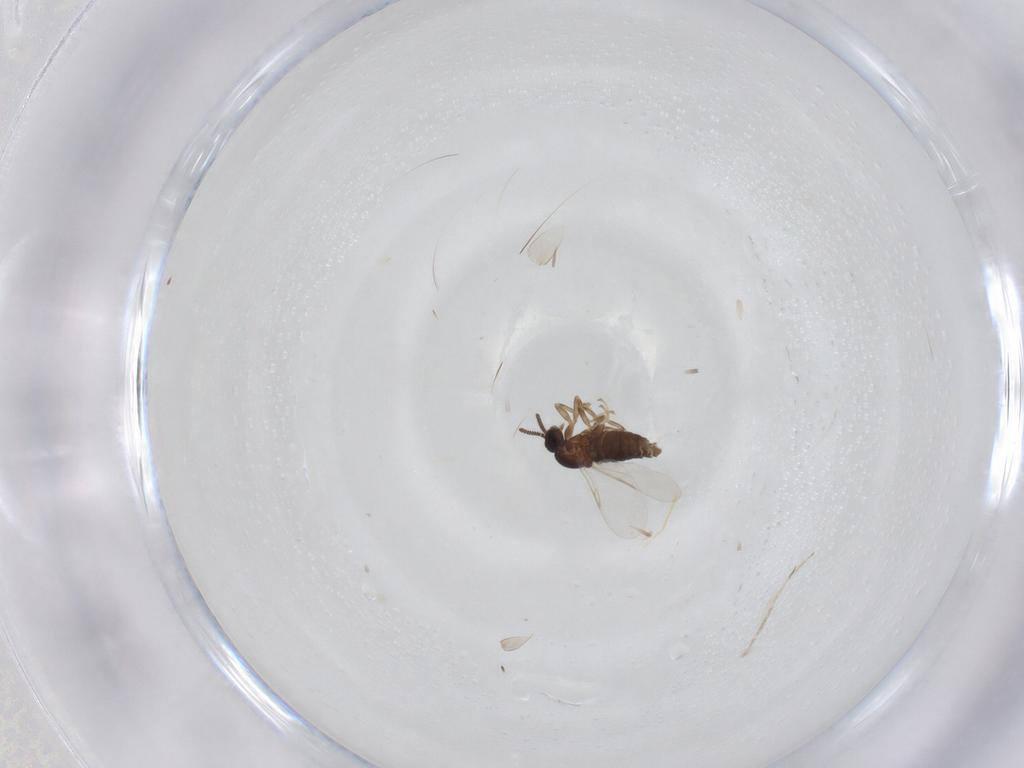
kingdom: Animalia
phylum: Arthropoda
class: Insecta
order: Diptera
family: Scatopsidae
